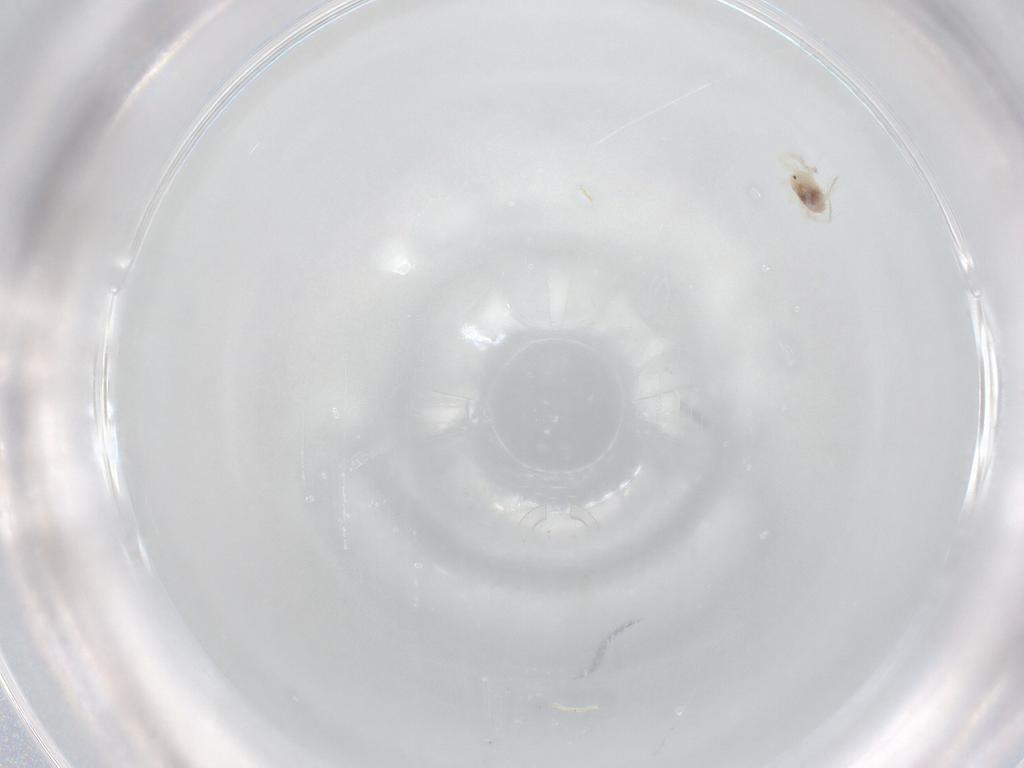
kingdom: Animalia
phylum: Arthropoda
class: Arachnida
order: Trombidiformes
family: Anystidae
